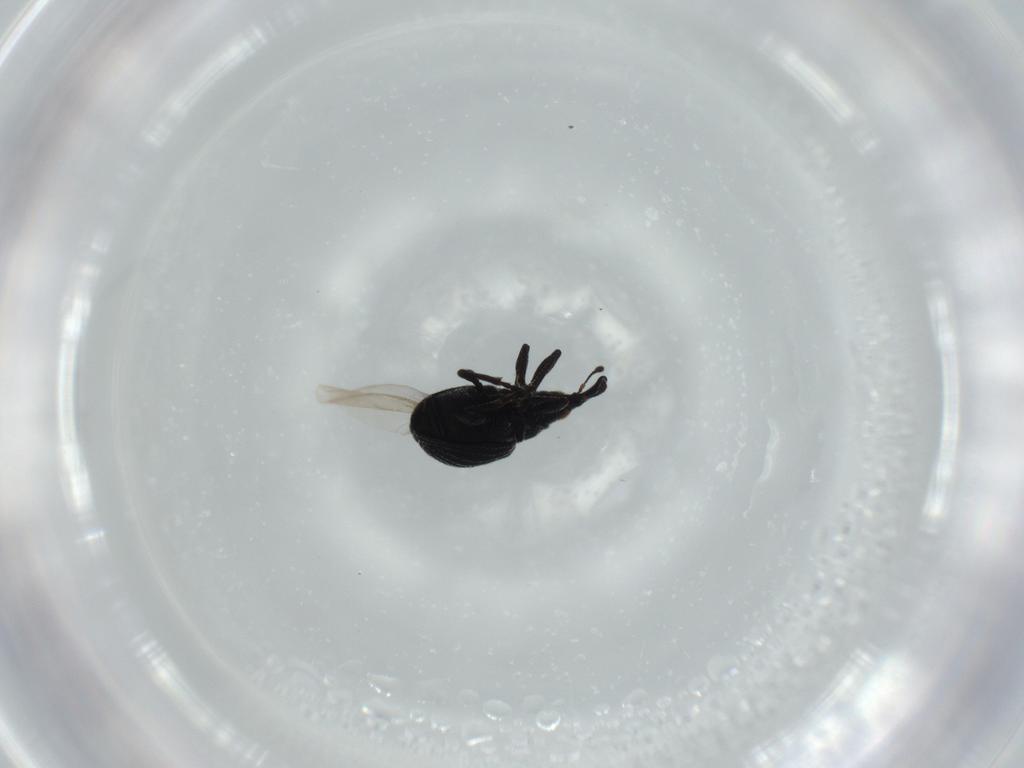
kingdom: Animalia
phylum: Arthropoda
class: Insecta
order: Coleoptera
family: Brentidae
